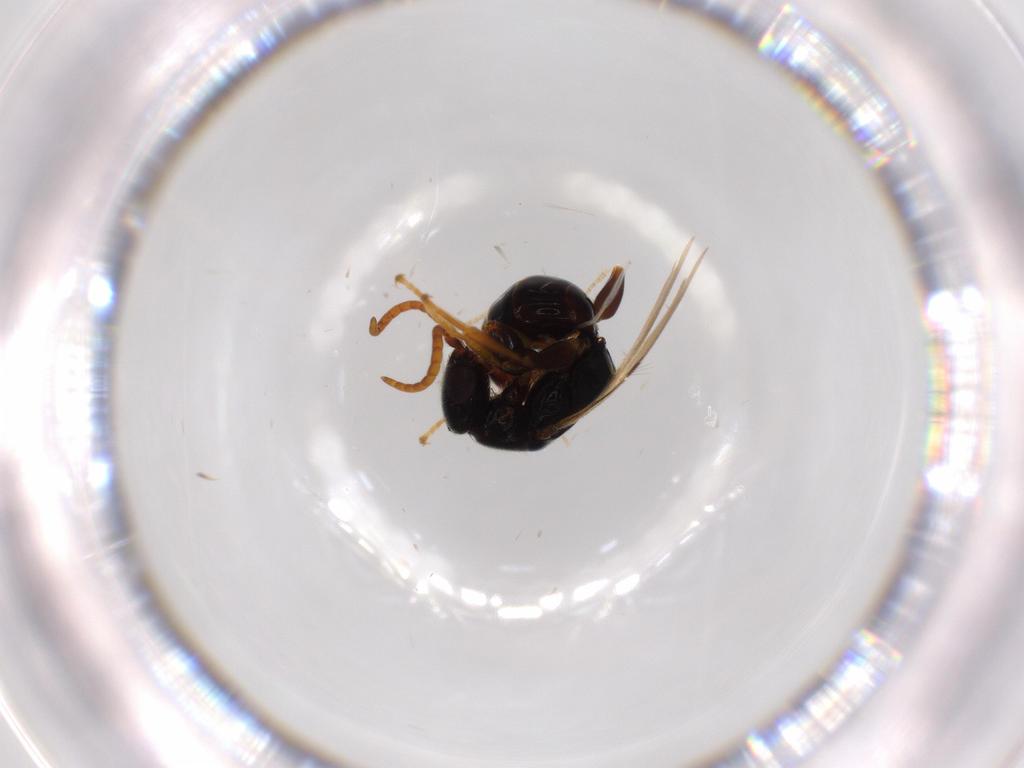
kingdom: Animalia
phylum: Arthropoda
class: Insecta
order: Hymenoptera
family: Bethylidae
